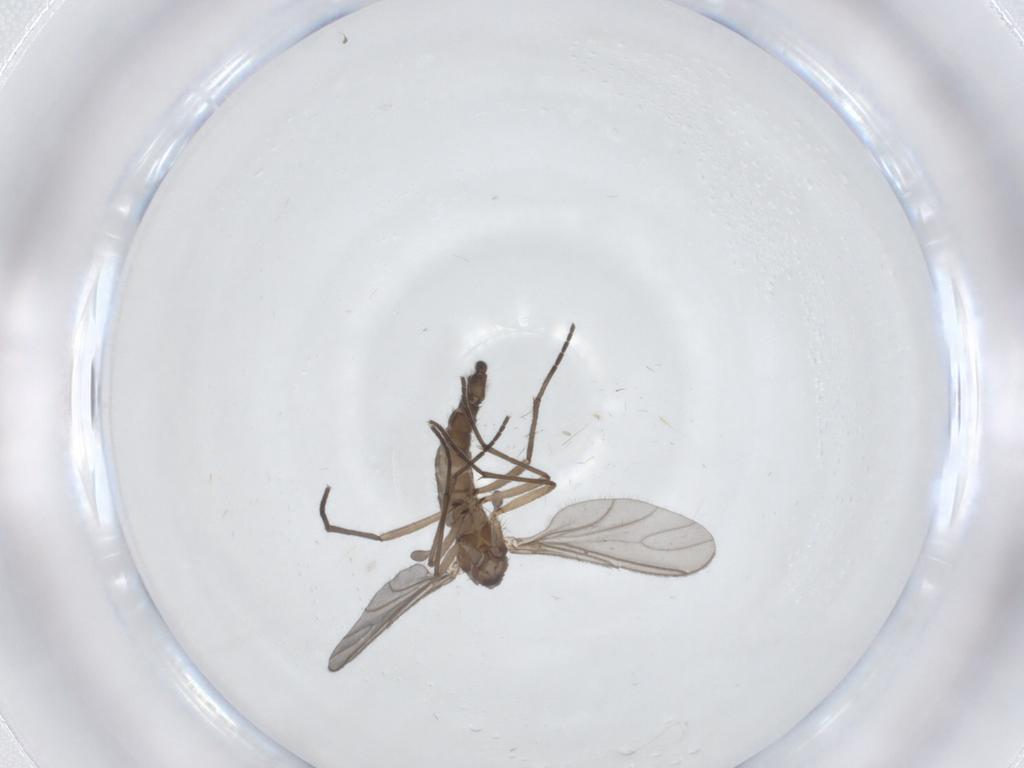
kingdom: Animalia
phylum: Arthropoda
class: Insecta
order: Diptera
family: Sciaridae
